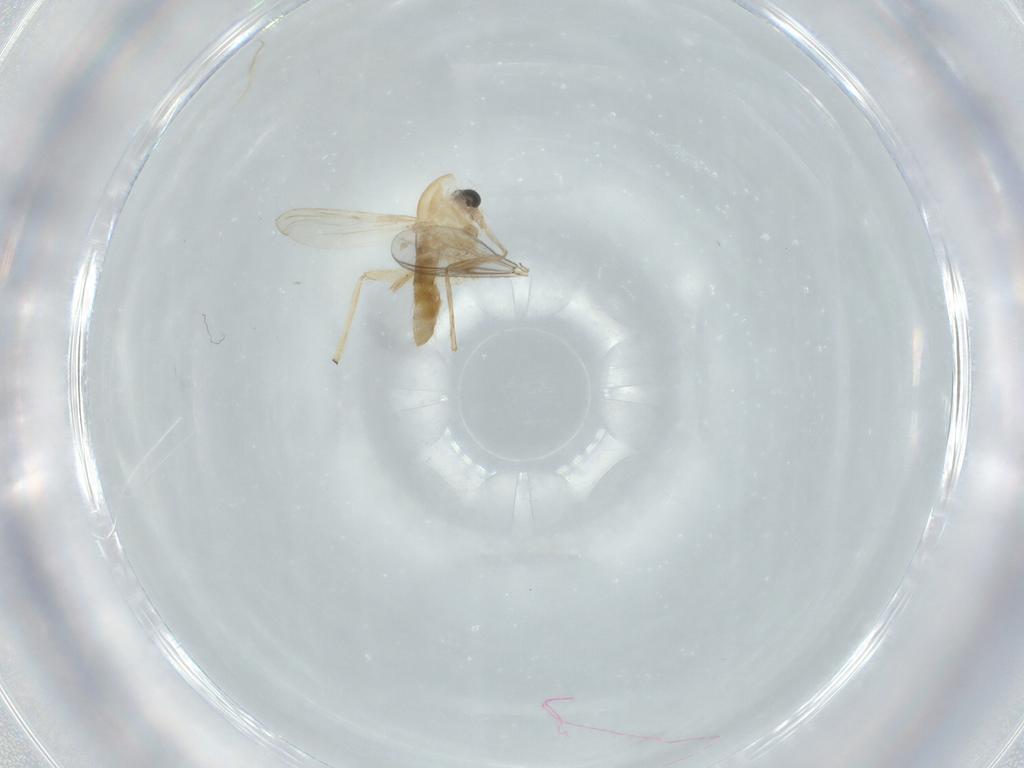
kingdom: Animalia
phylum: Arthropoda
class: Insecta
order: Diptera
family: Chironomidae
